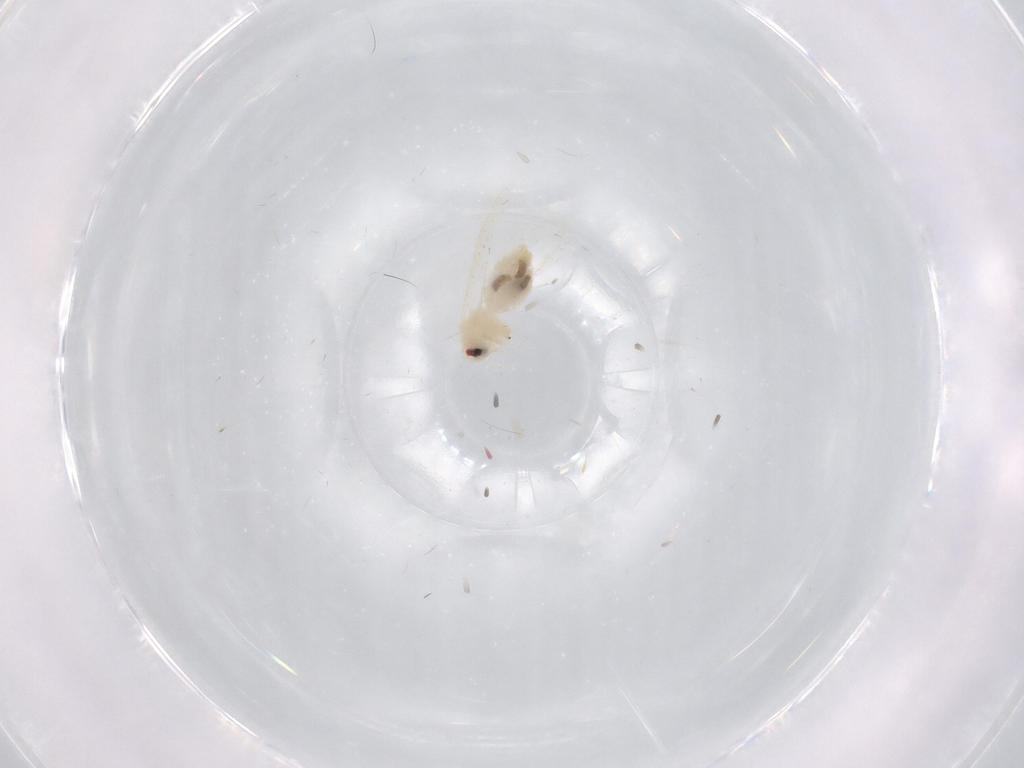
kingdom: Animalia
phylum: Arthropoda
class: Insecta
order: Diptera
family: Limoniidae
